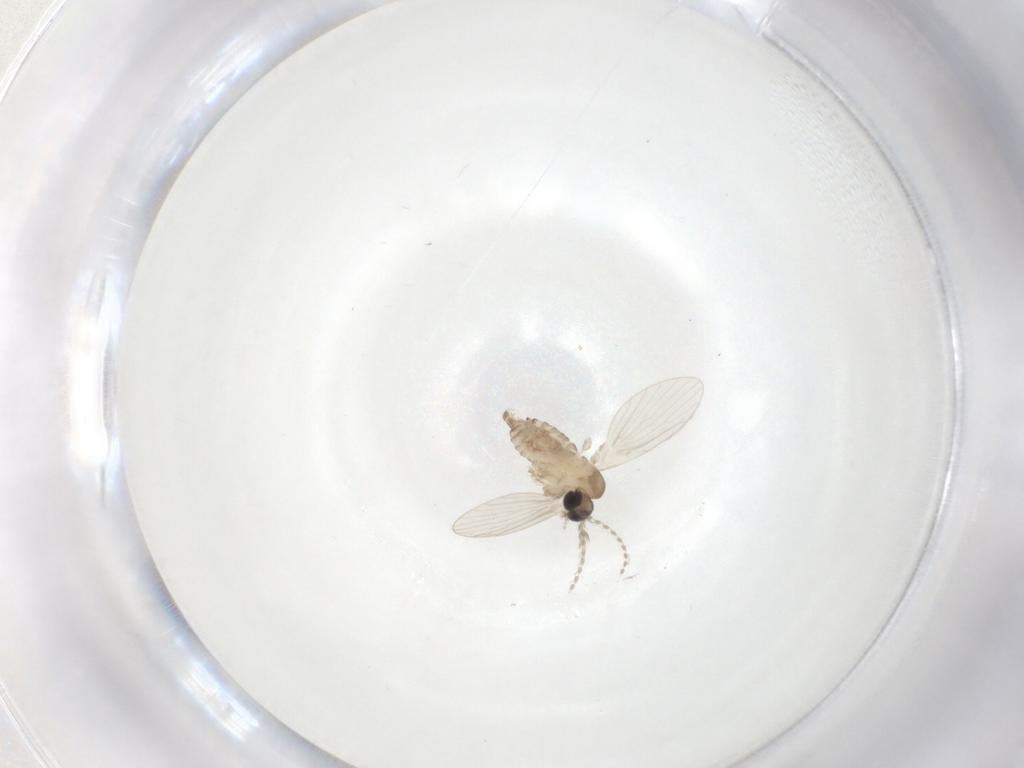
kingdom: Animalia
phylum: Arthropoda
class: Insecta
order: Diptera
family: Psychodidae
